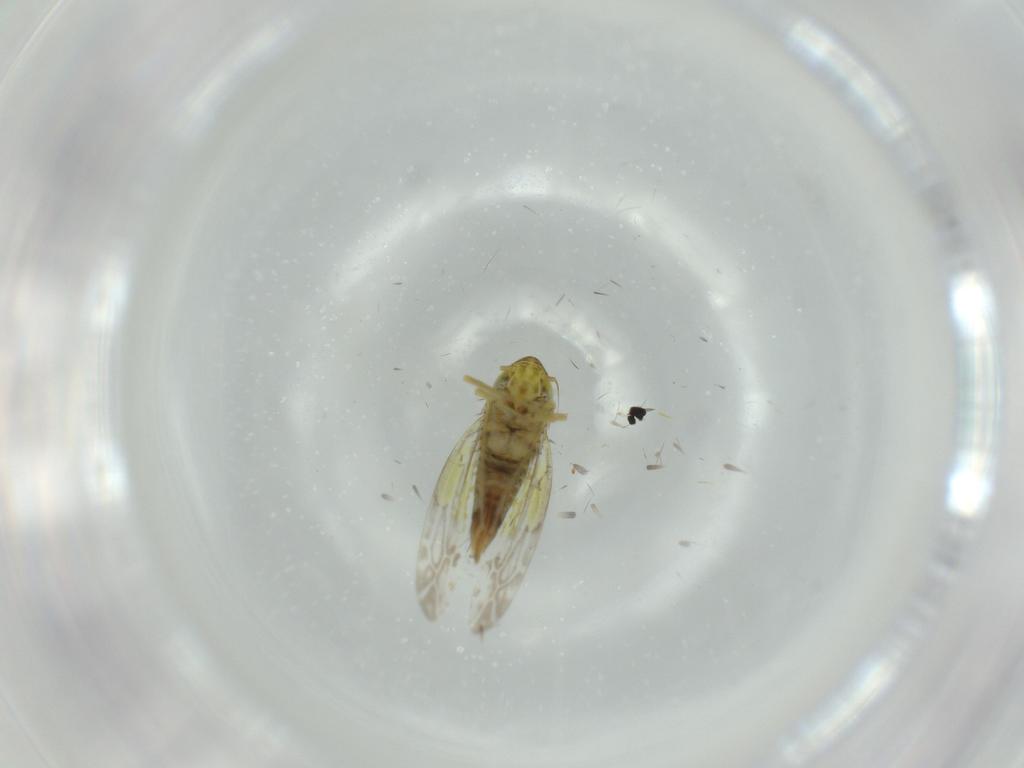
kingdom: Animalia
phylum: Arthropoda
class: Insecta
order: Hemiptera
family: Cicadellidae
